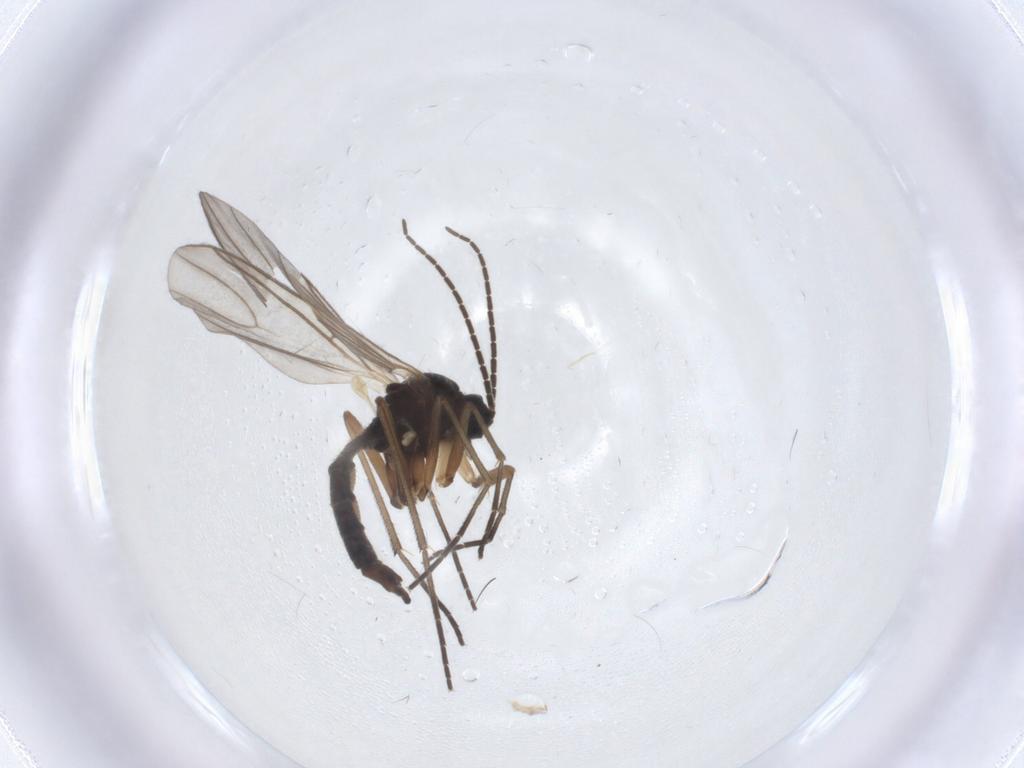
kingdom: Animalia
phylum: Arthropoda
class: Insecta
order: Diptera
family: Sciaridae
